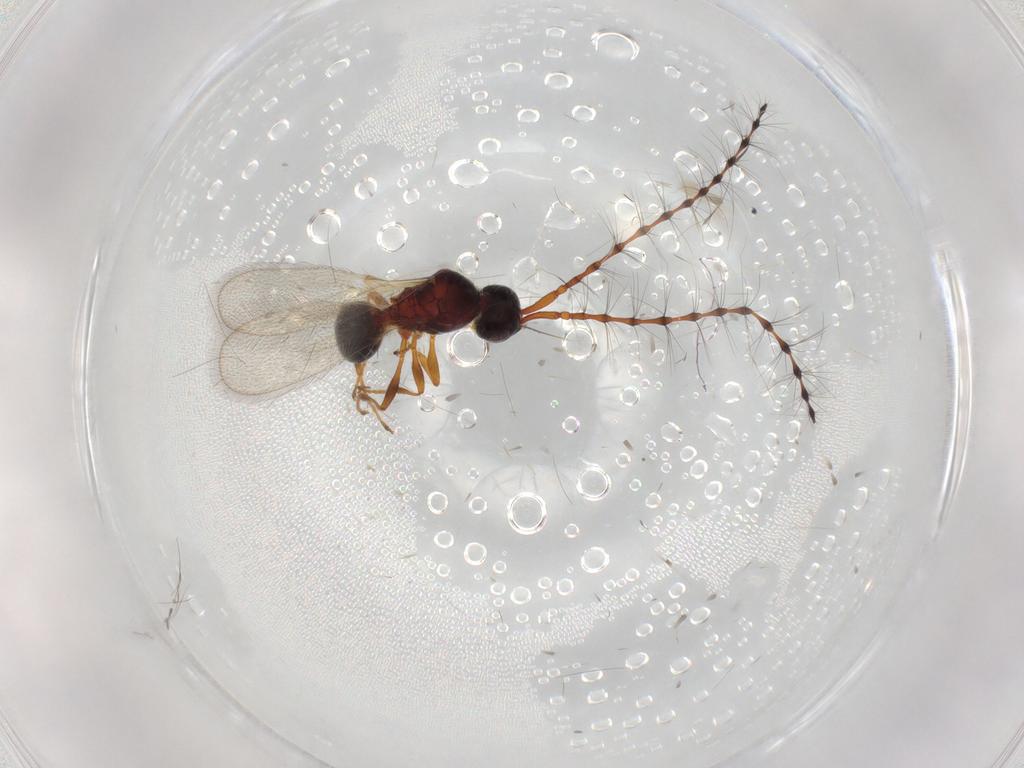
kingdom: Animalia
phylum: Arthropoda
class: Insecta
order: Hymenoptera
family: Diapriidae
